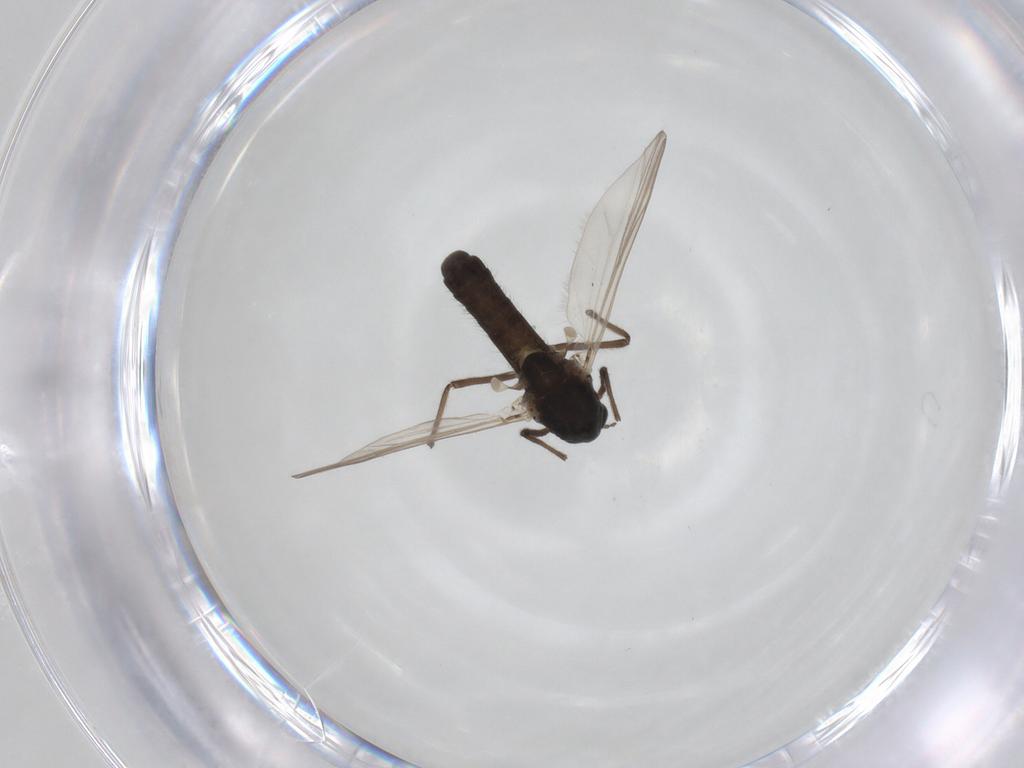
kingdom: Animalia
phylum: Arthropoda
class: Insecta
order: Diptera
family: Chironomidae
